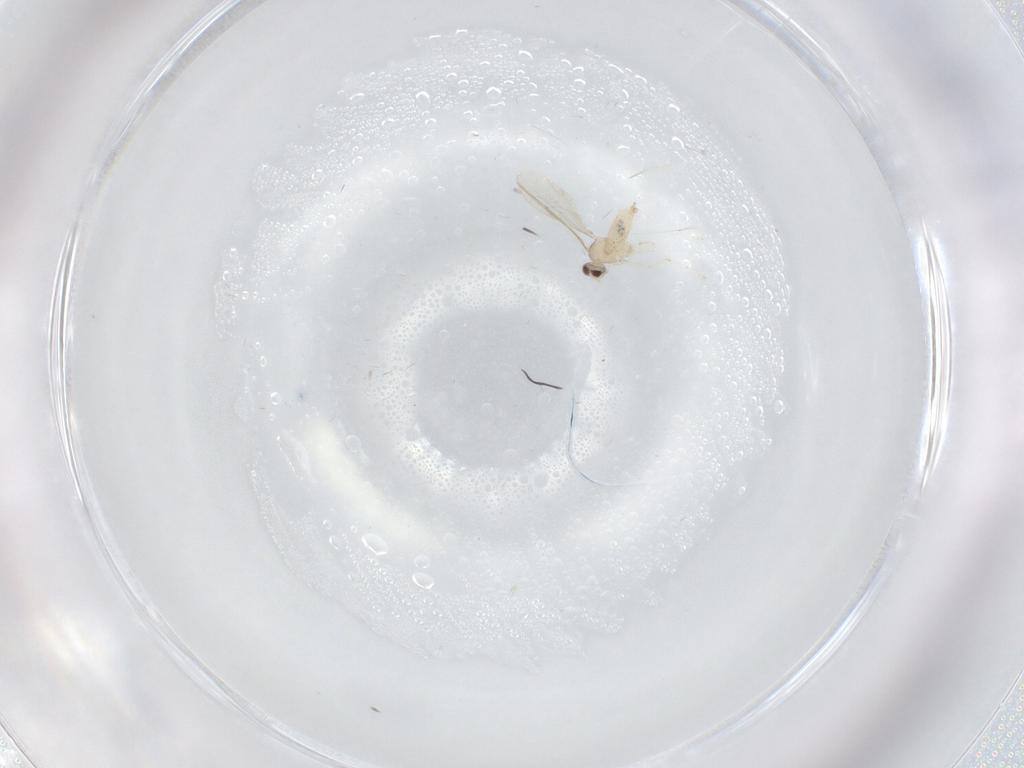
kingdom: Animalia
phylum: Arthropoda
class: Insecta
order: Diptera
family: Cecidomyiidae
